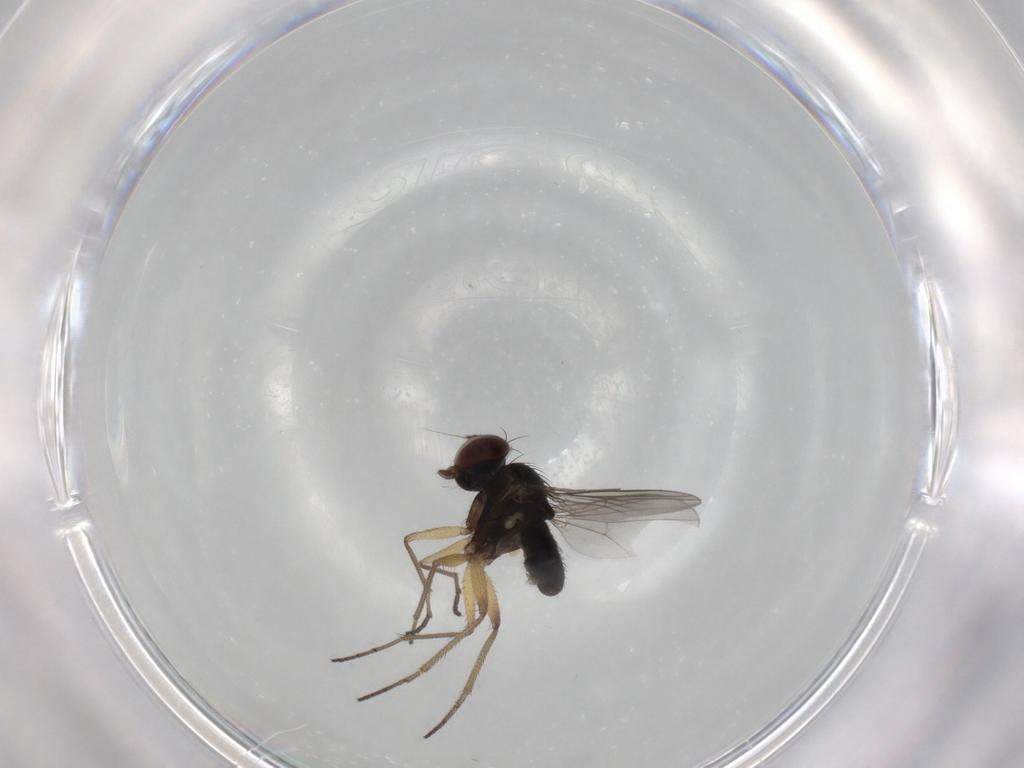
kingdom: Animalia
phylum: Arthropoda
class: Insecta
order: Diptera
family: Dolichopodidae
